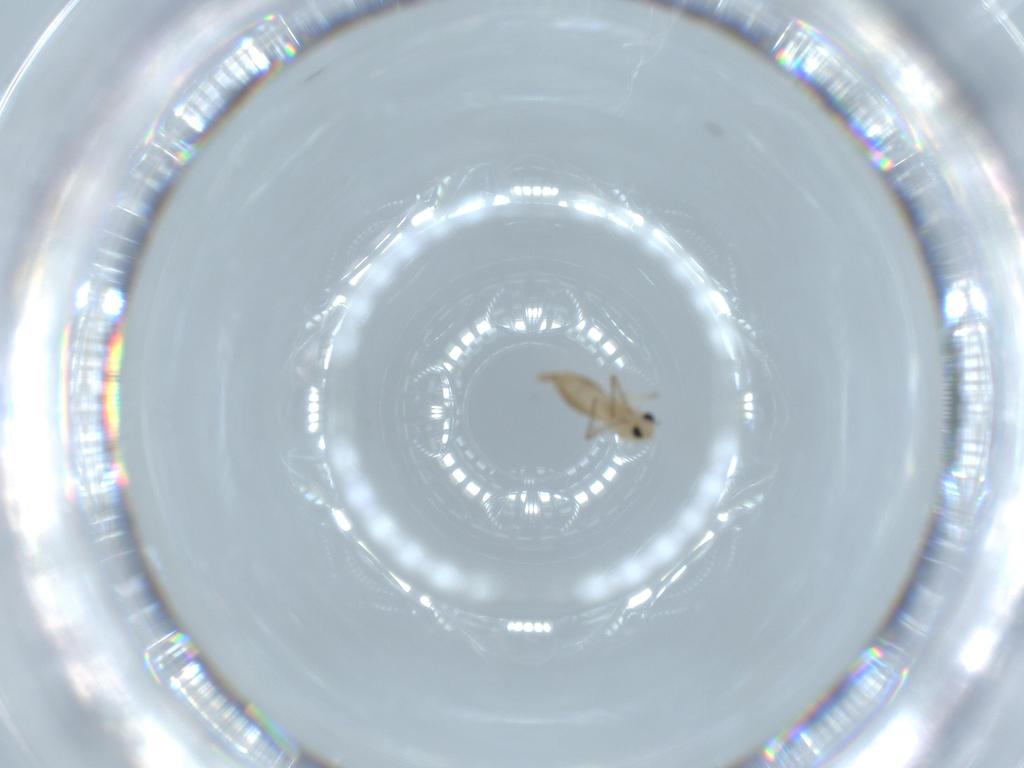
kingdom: Animalia
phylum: Arthropoda
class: Insecta
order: Diptera
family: Chironomidae
